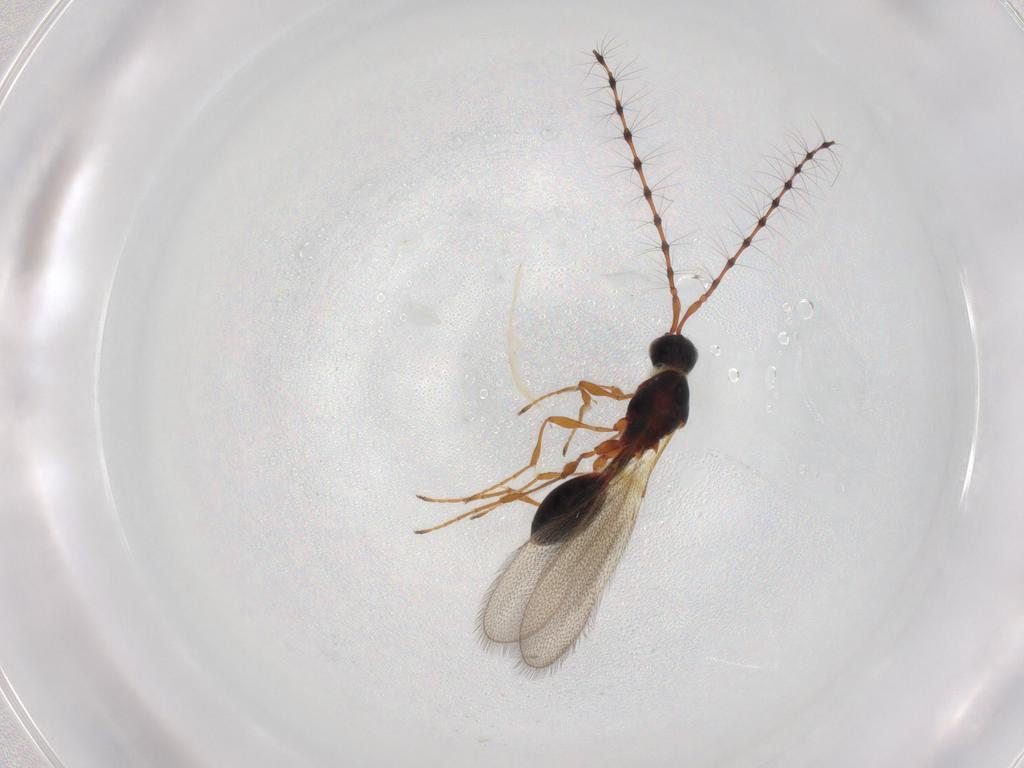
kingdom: Animalia
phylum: Arthropoda
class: Insecta
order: Hymenoptera
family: Diapriidae
